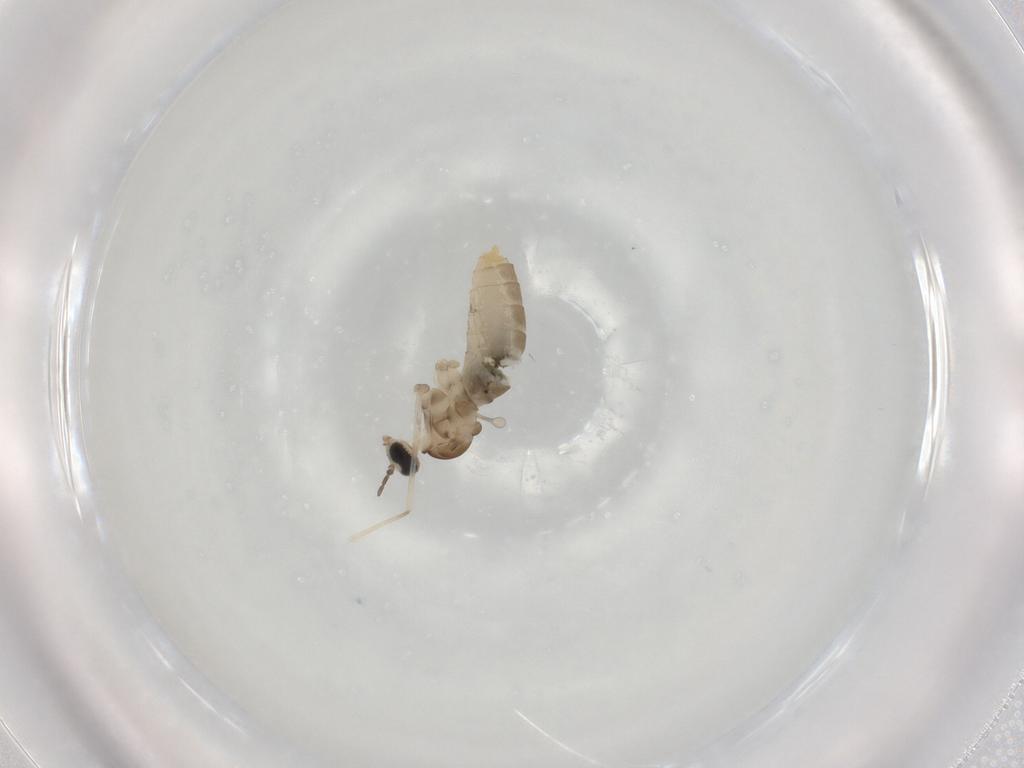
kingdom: Animalia
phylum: Arthropoda
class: Insecta
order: Diptera
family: Cecidomyiidae
